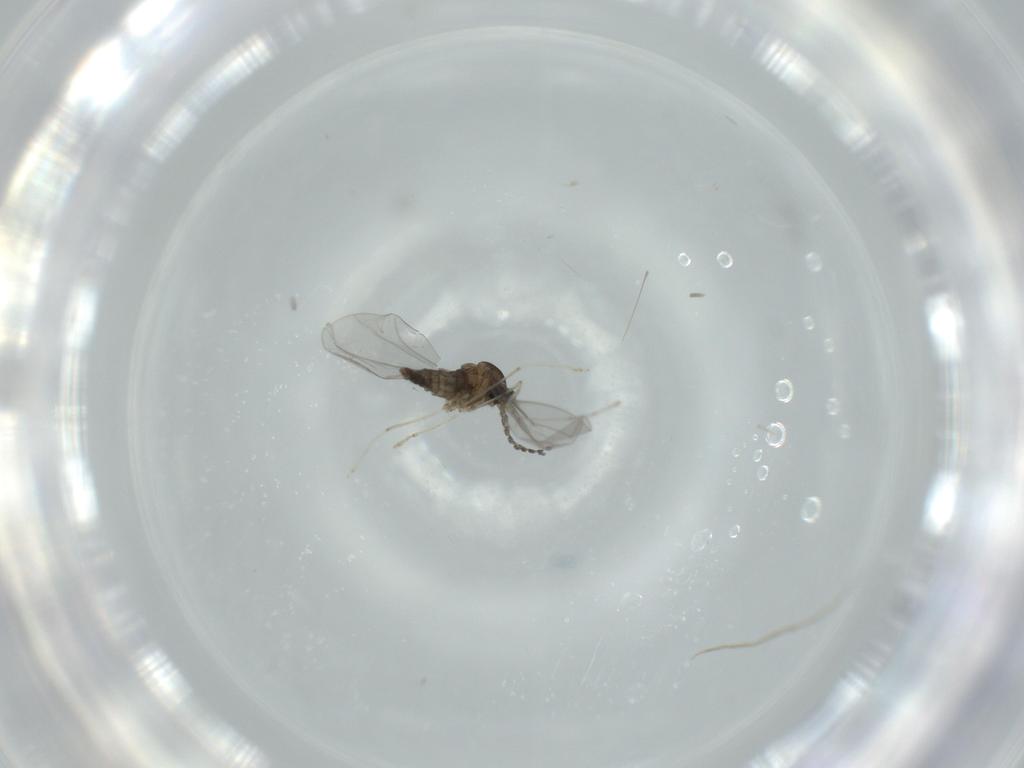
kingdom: Animalia
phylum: Arthropoda
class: Insecta
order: Diptera
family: Cecidomyiidae
